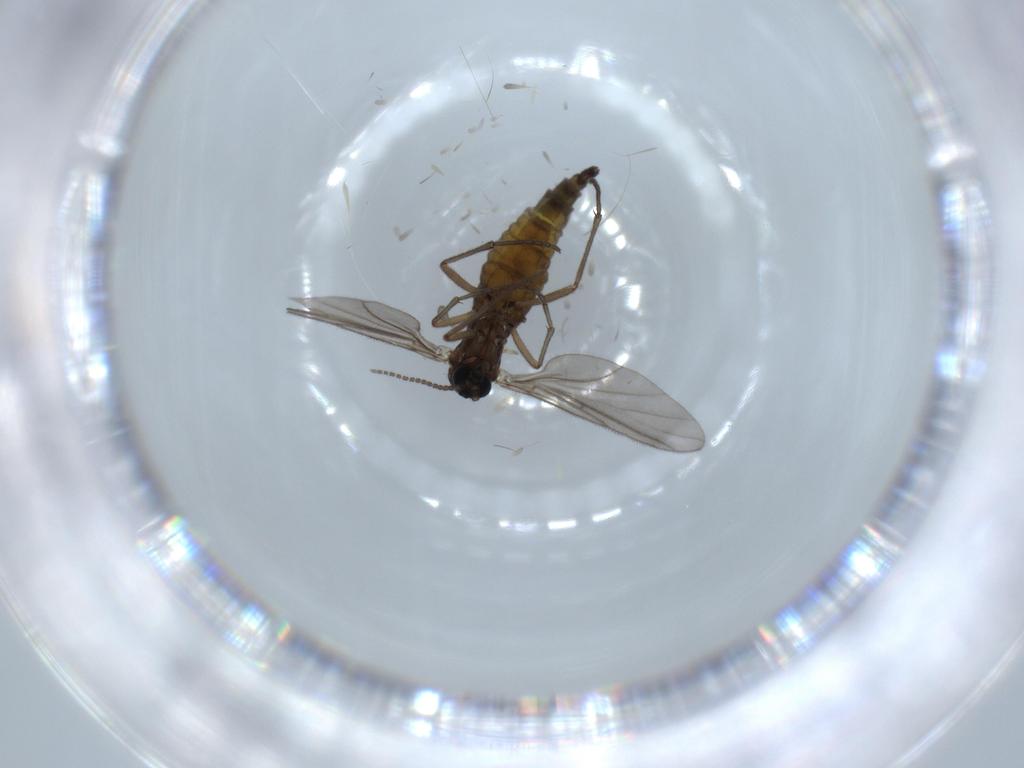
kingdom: Animalia
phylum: Arthropoda
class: Insecta
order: Diptera
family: Sciaridae
